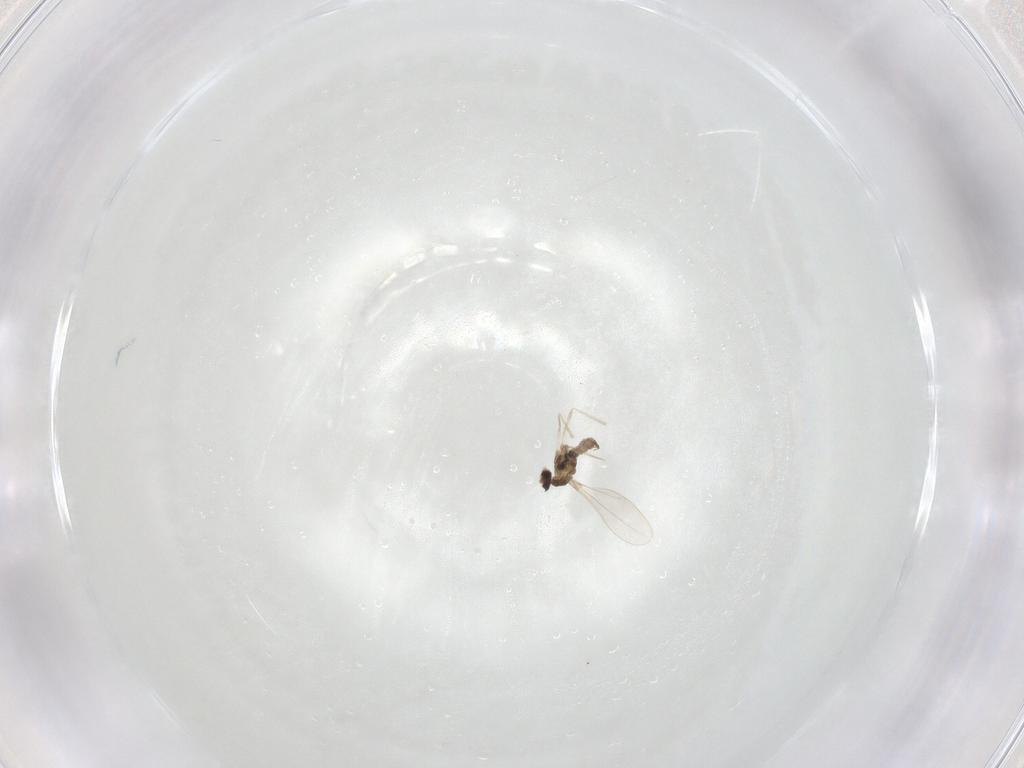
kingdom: Animalia
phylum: Arthropoda
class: Insecta
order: Diptera
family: Cecidomyiidae
